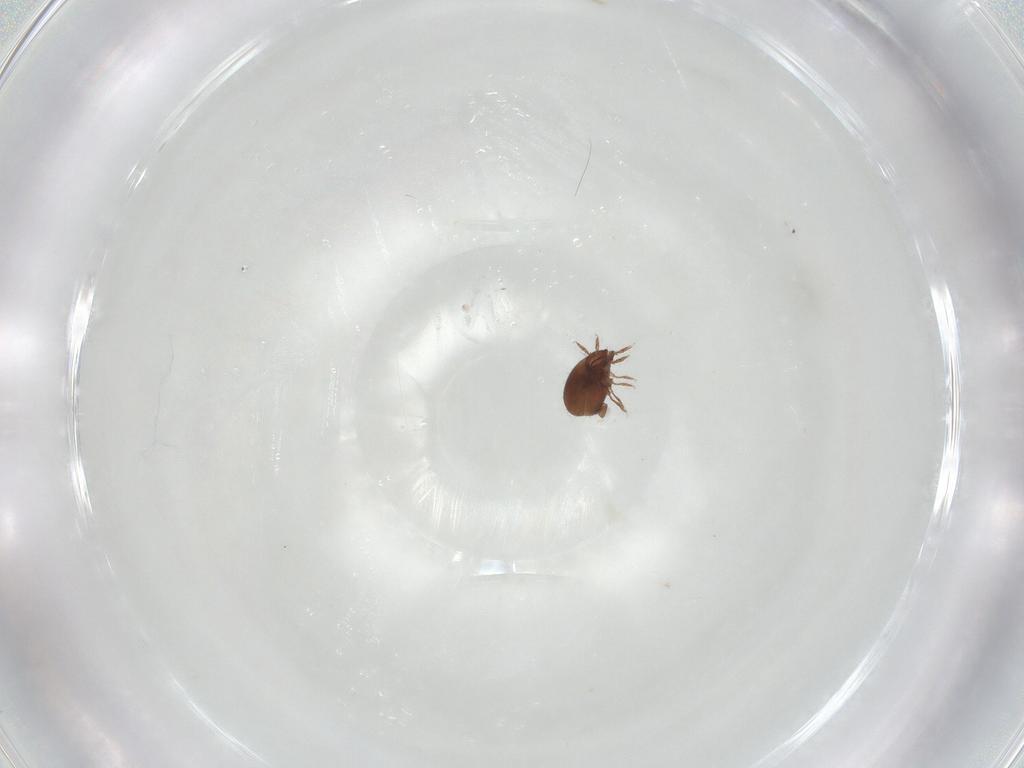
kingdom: Animalia
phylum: Arthropoda
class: Arachnida
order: Sarcoptiformes
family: Humerobatidae
